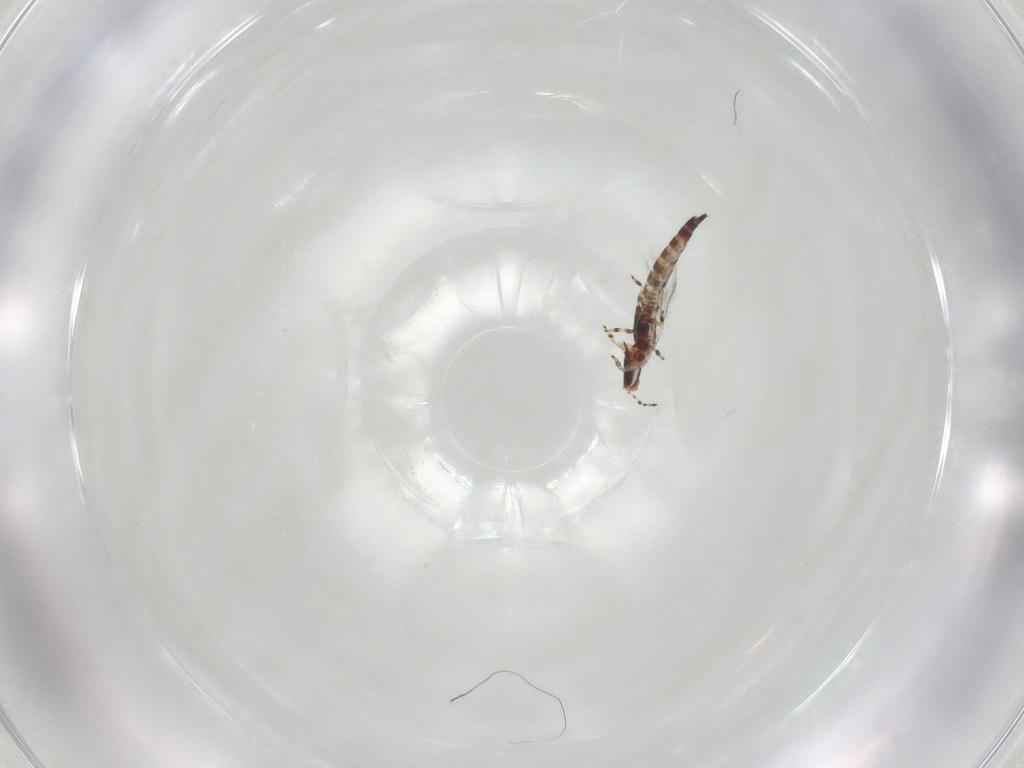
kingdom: Animalia
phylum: Arthropoda
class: Insecta
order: Thysanoptera
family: Phlaeothripidae
